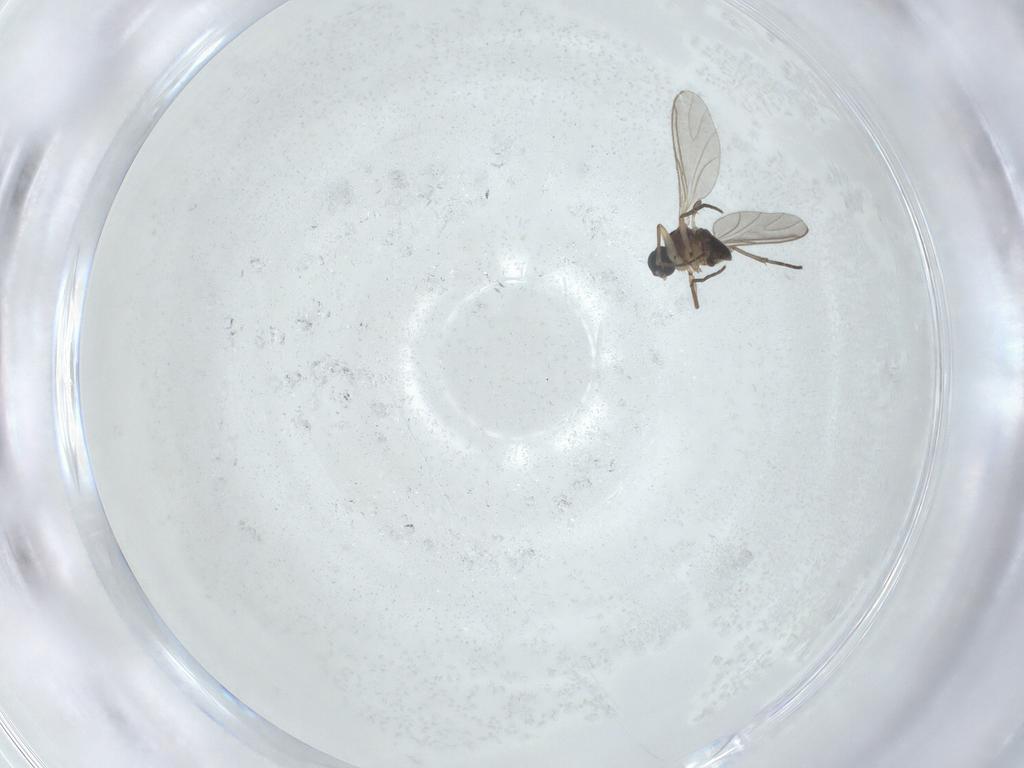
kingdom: Animalia
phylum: Arthropoda
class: Insecta
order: Diptera
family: Sciaridae
